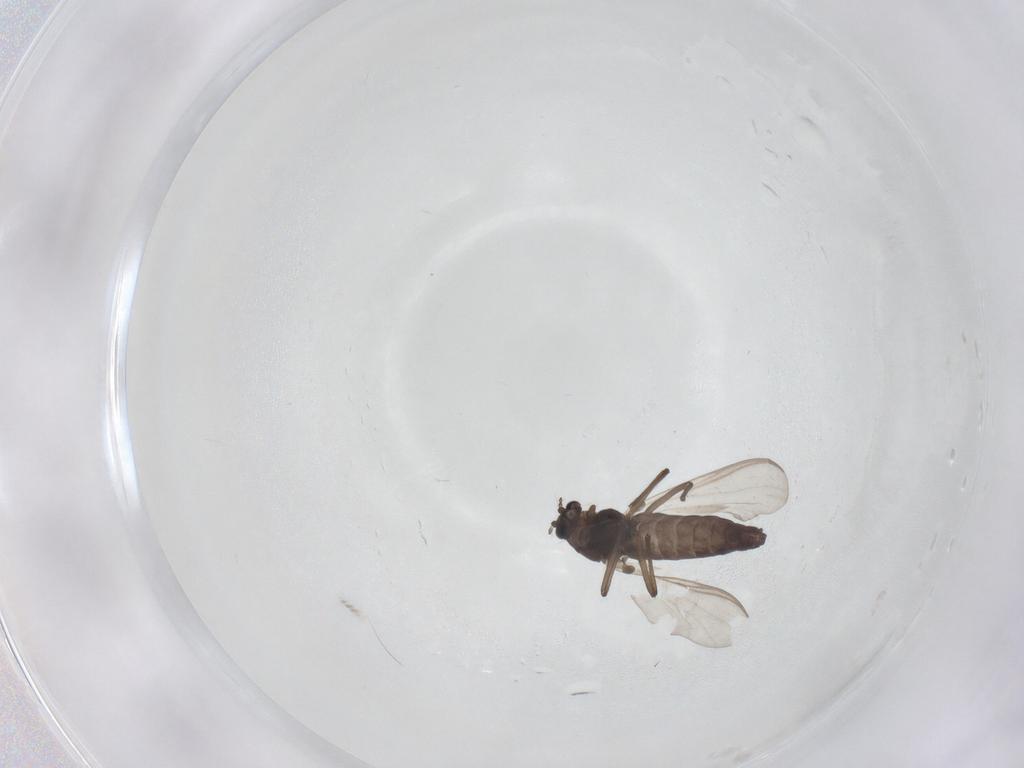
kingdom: Animalia
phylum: Arthropoda
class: Insecta
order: Diptera
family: Chironomidae
